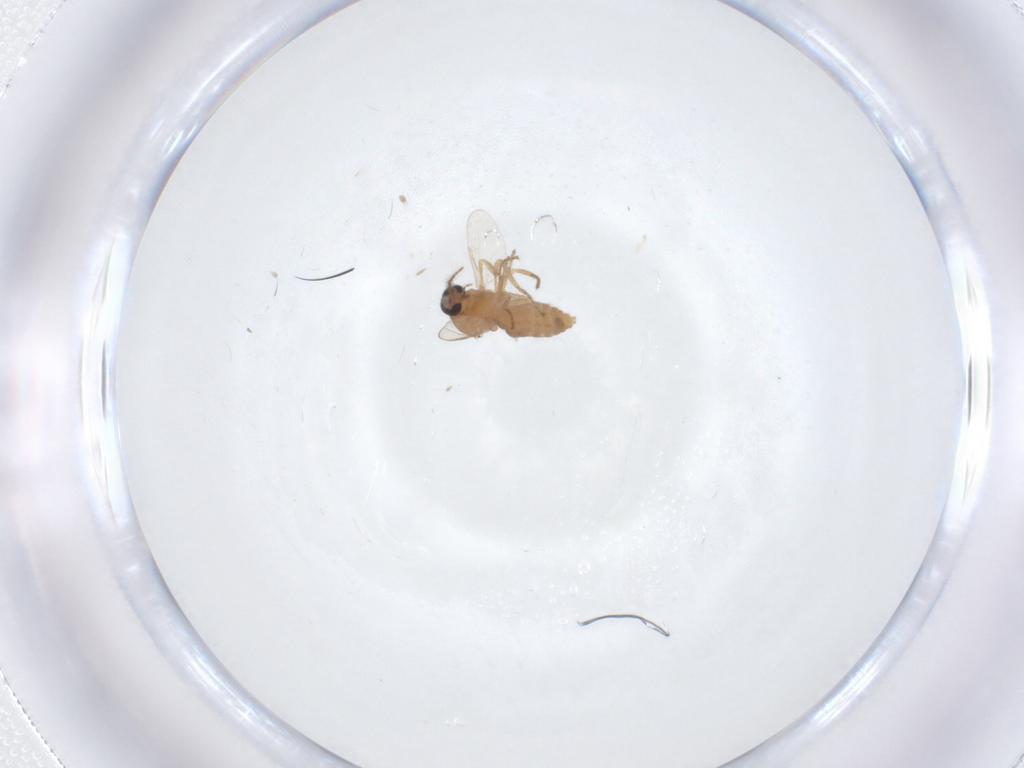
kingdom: Animalia
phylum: Arthropoda
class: Insecta
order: Diptera
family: Ceratopogonidae
